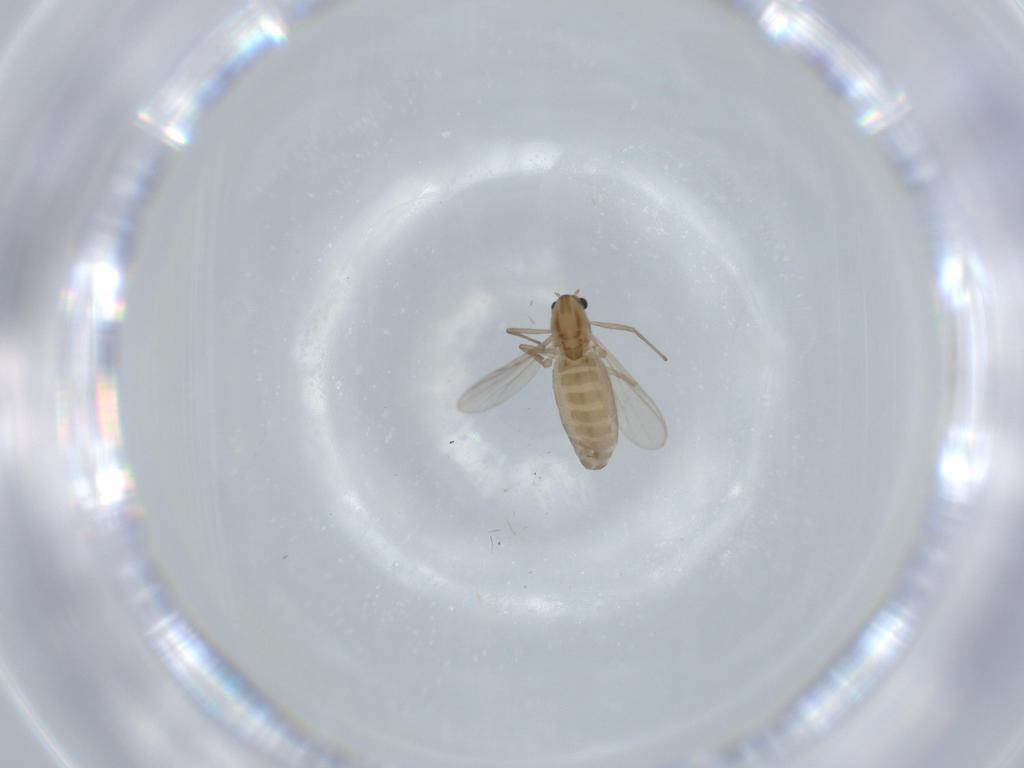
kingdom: Animalia
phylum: Arthropoda
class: Insecta
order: Diptera
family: Chironomidae
